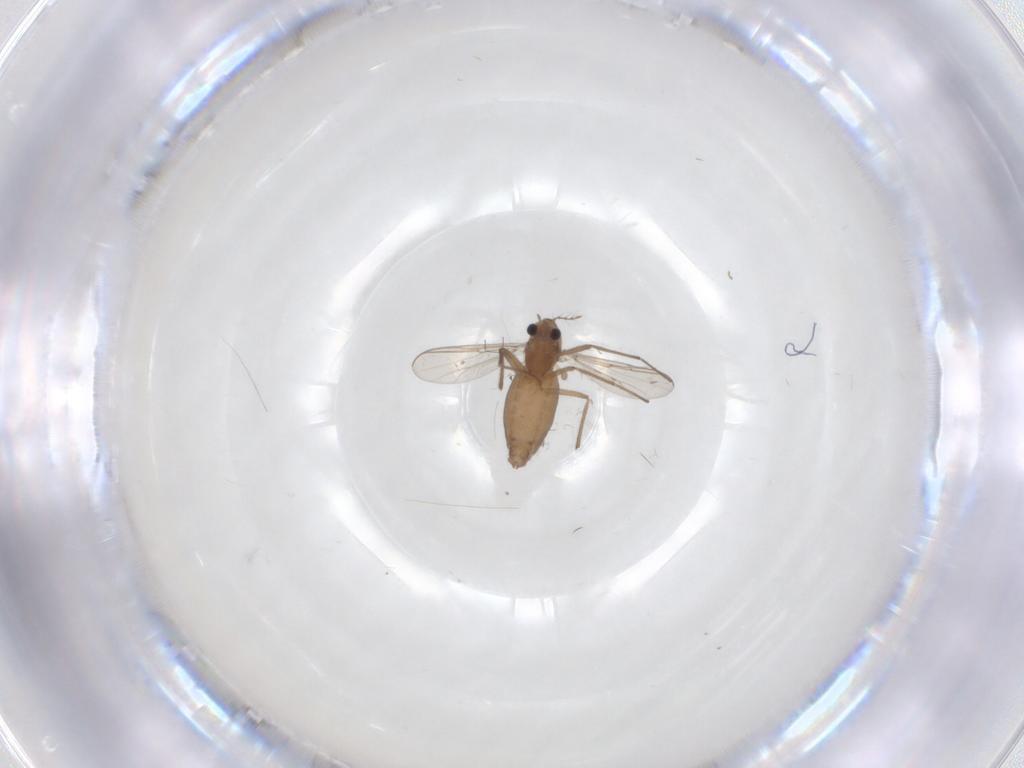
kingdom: Animalia
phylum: Arthropoda
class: Insecta
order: Diptera
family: Chironomidae
